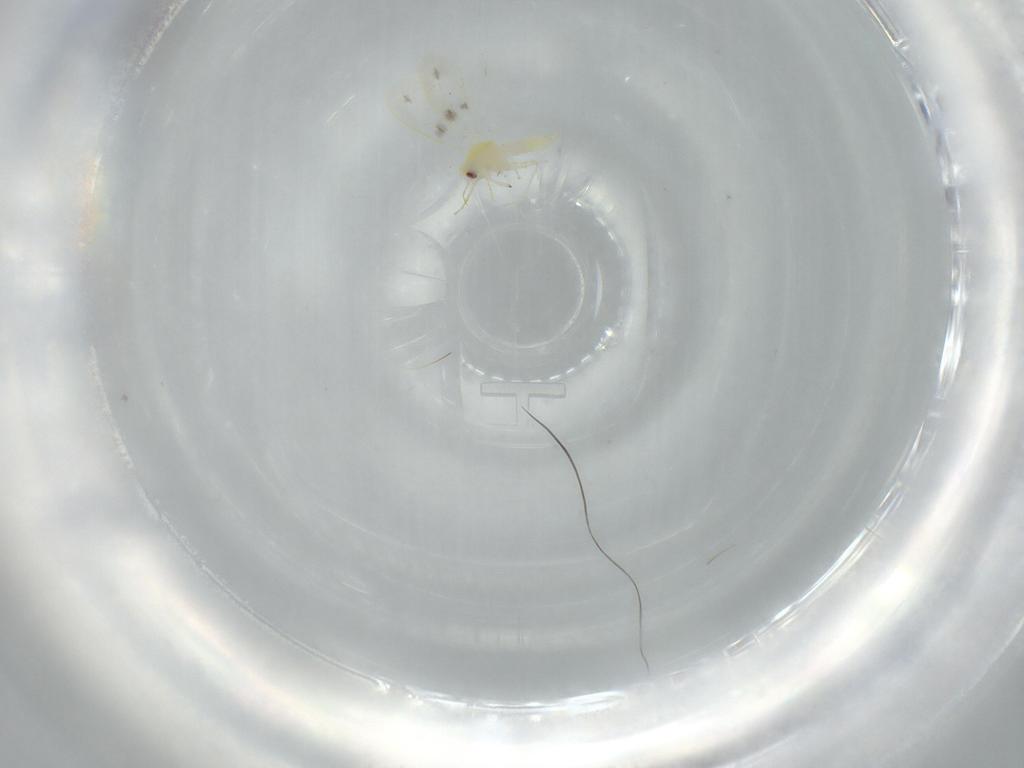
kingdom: Animalia
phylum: Arthropoda
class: Insecta
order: Hemiptera
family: Aleyrodidae
